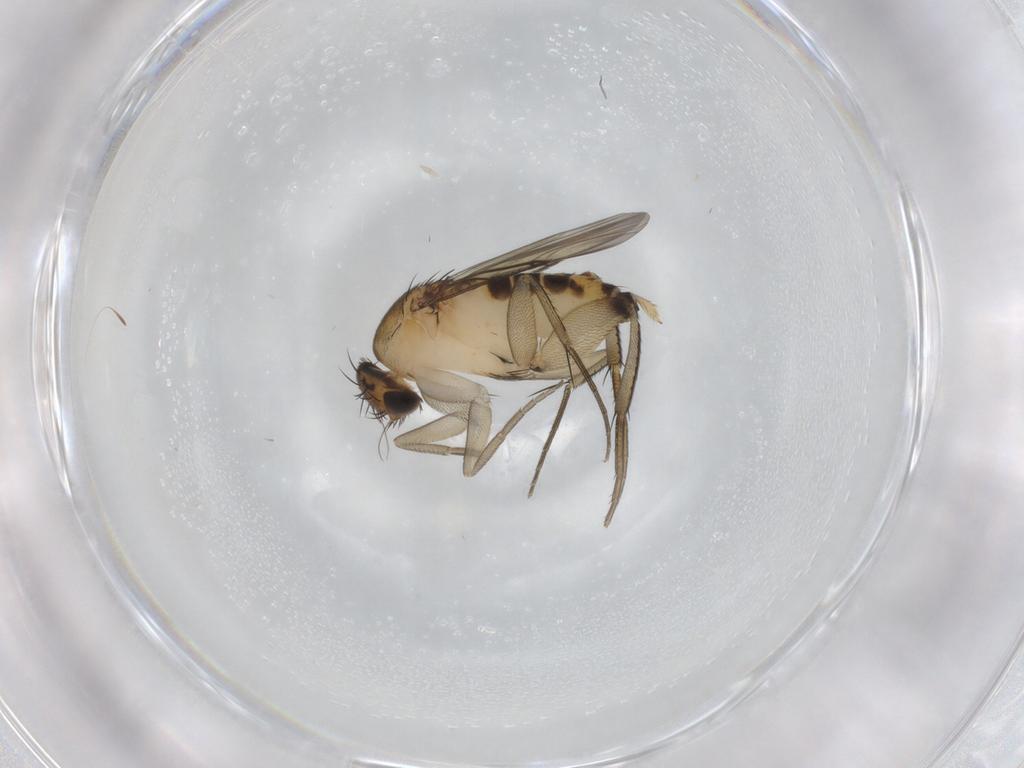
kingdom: Animalia
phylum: Arthropoda
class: Insecta
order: Diptera
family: Phoridae
